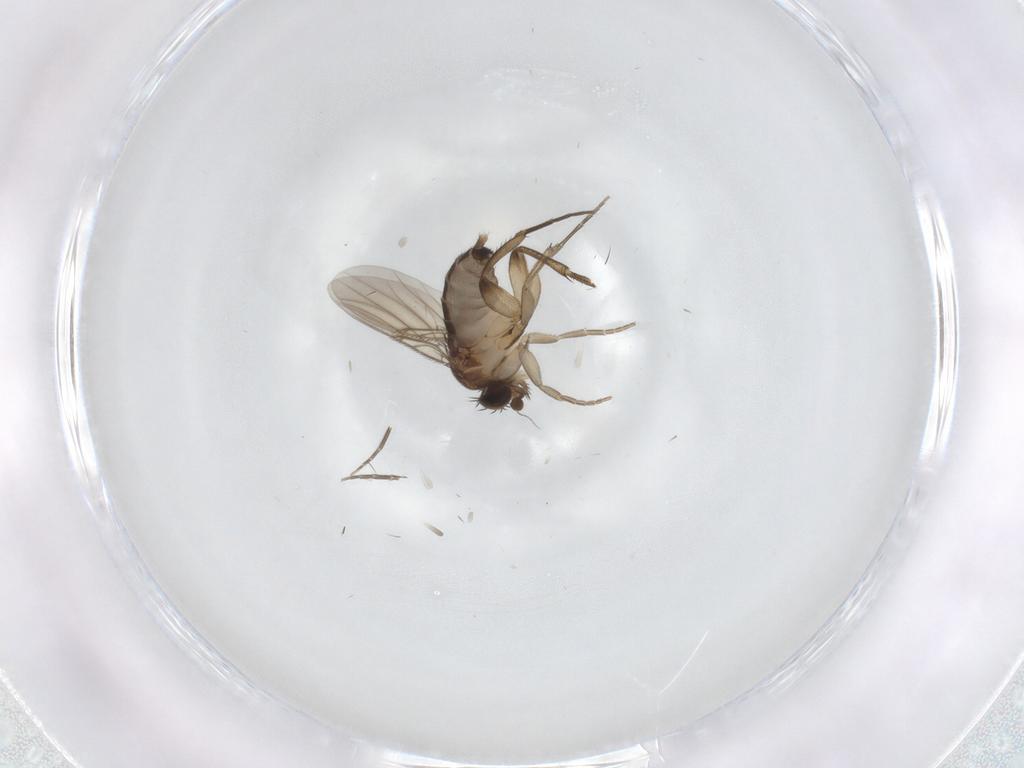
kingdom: Animalia
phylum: Arthropoda
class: Insecta
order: Diptera
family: Phoridae
